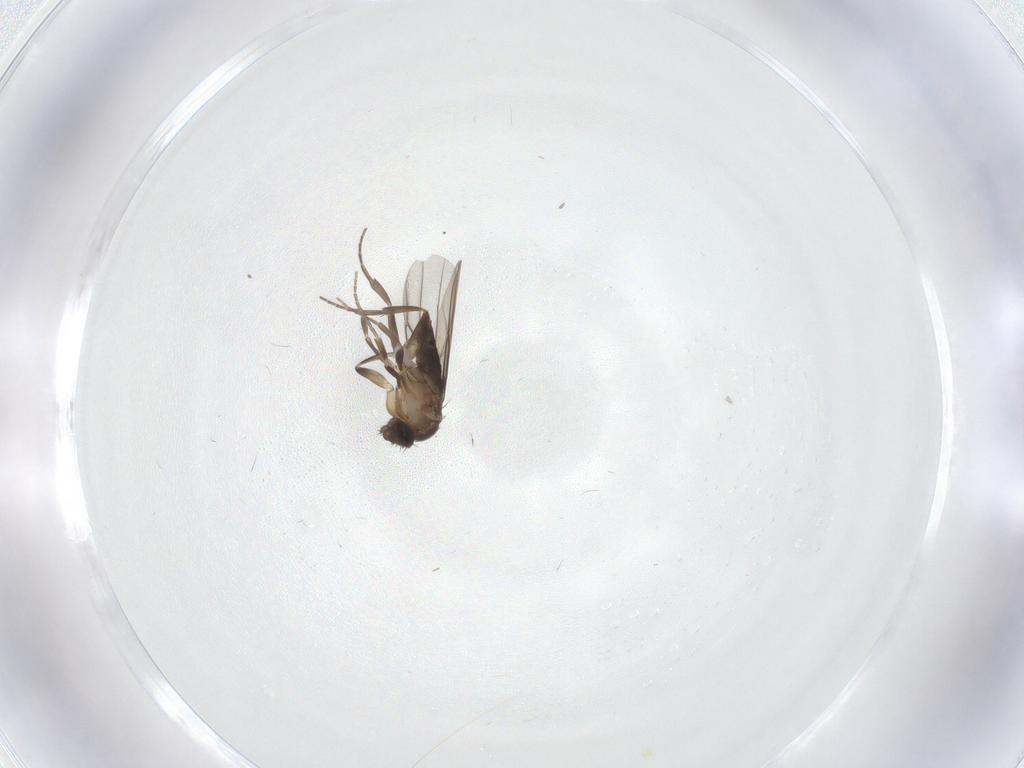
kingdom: Animalia
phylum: Arthropoda
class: Insecta
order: Diptera
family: Phoridae
